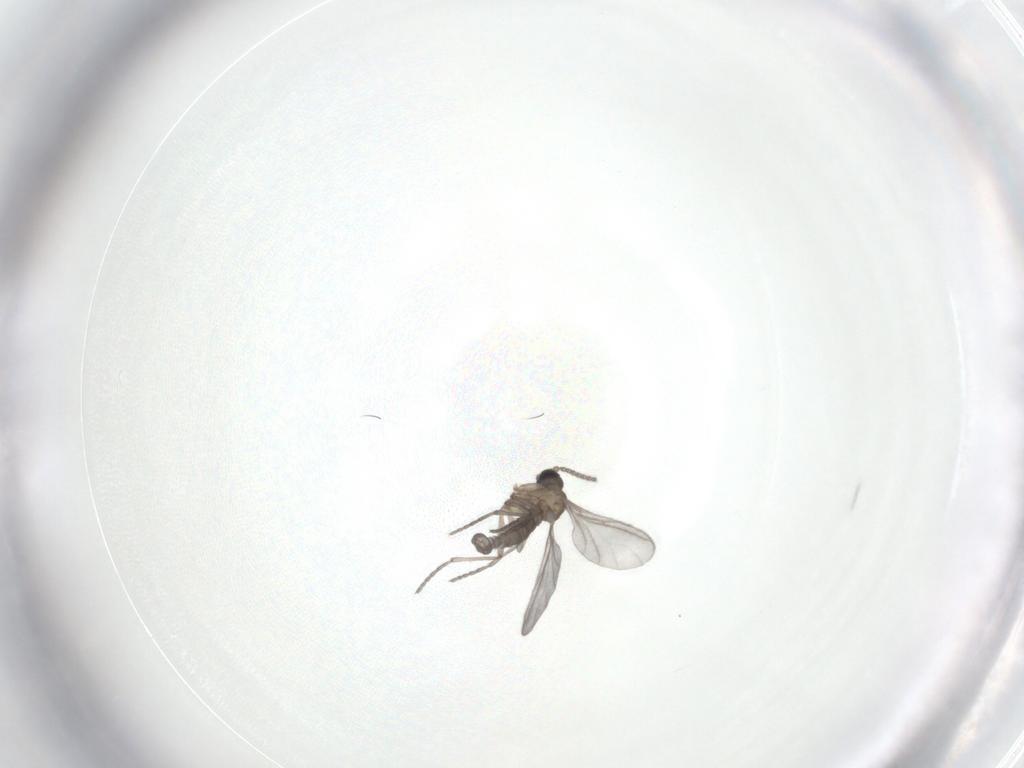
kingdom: Animalia
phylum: Arthropoda
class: Insecta
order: Diptera
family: Sciaridae
